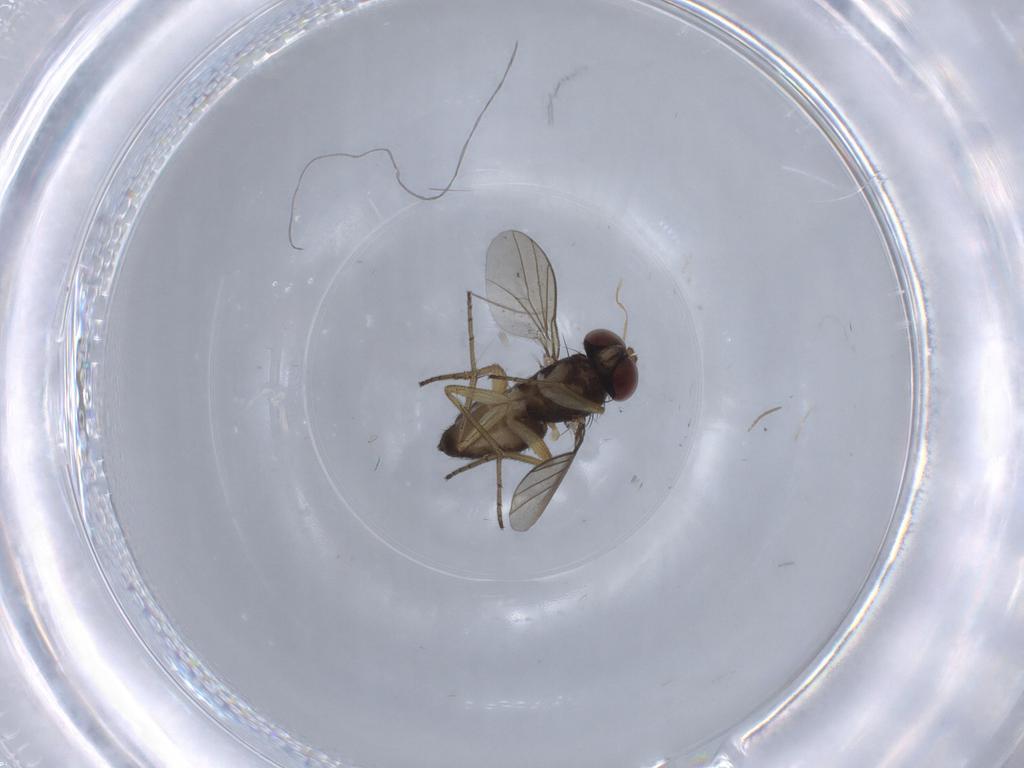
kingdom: Animalia
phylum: Arthropoda
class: Insecta
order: Diptera
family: Dolichopodidae
